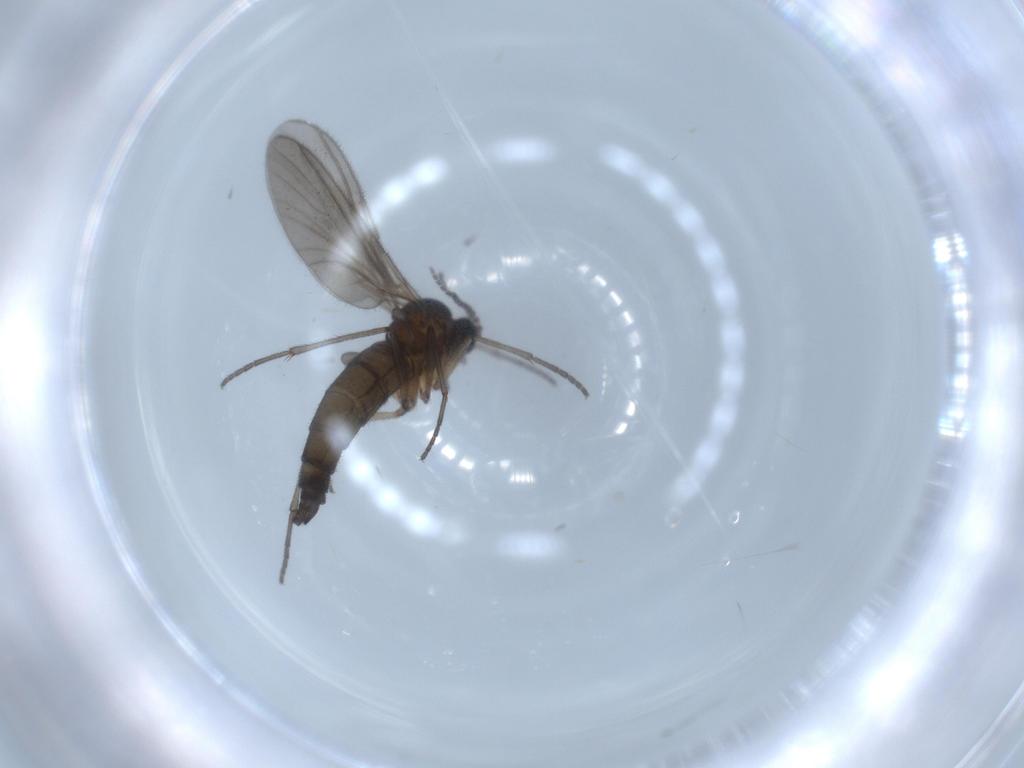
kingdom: Animalia
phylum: Arthropoda
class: Insecta
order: Diptera
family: Sciaridae
